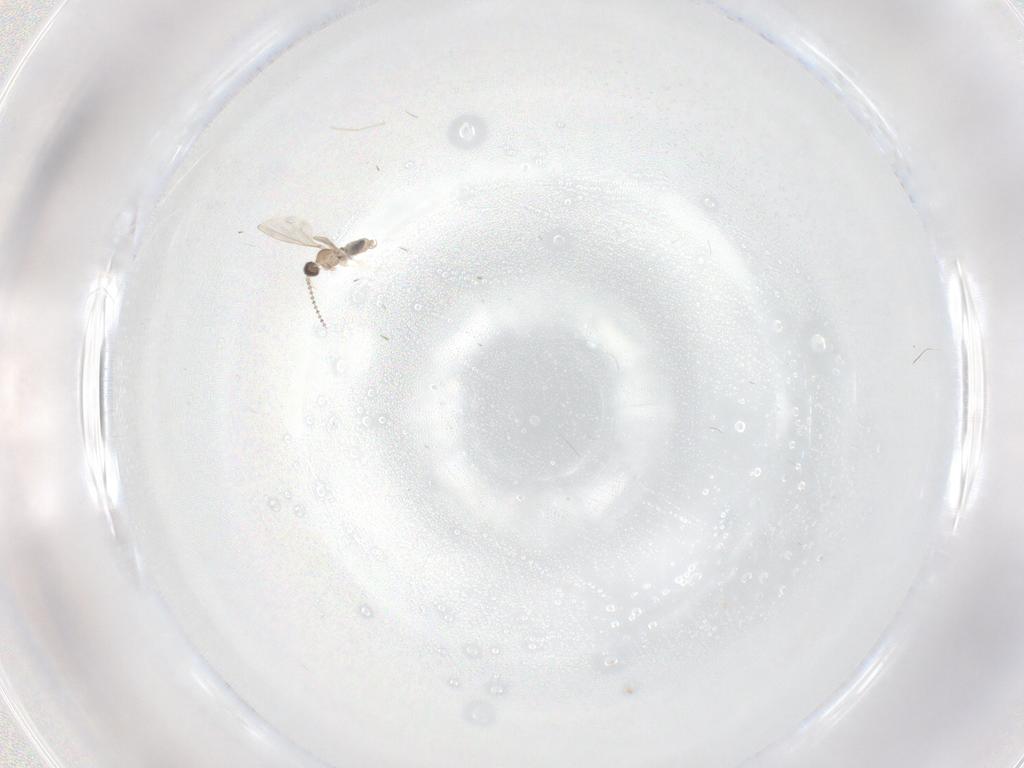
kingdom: Animalia
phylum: Arthropoda
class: Insecta
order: Diptera
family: Cecidomyiidae
